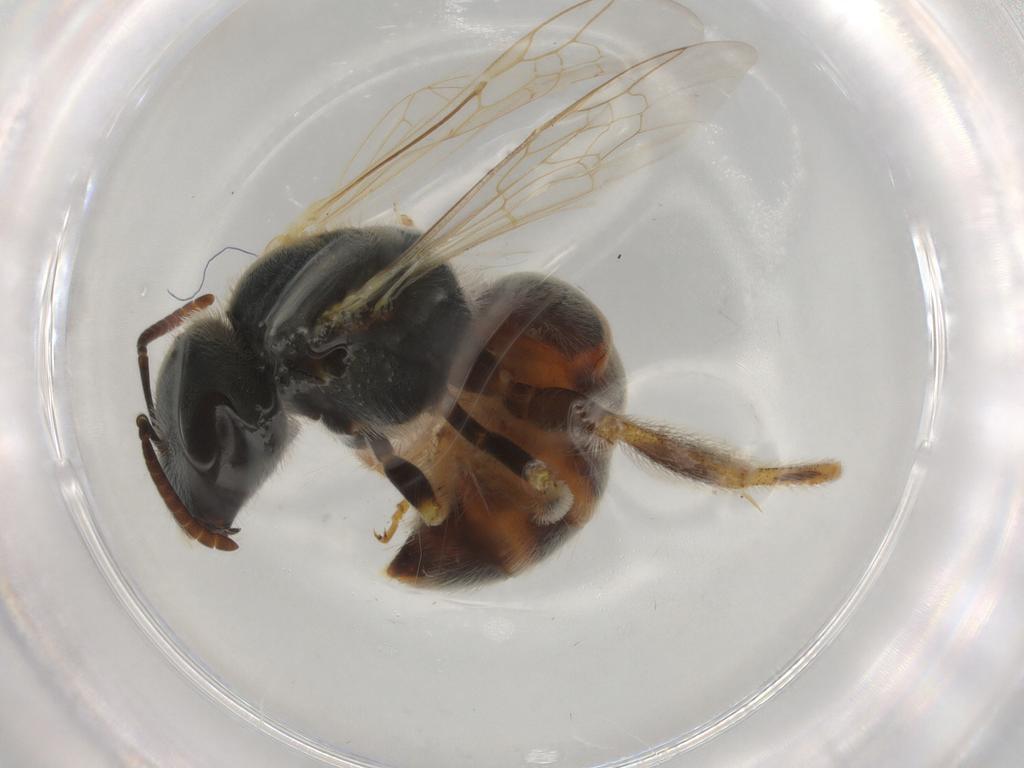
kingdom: Animalia
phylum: Arthropoda
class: Insecta
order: Hymenoptera
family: Halictidae
